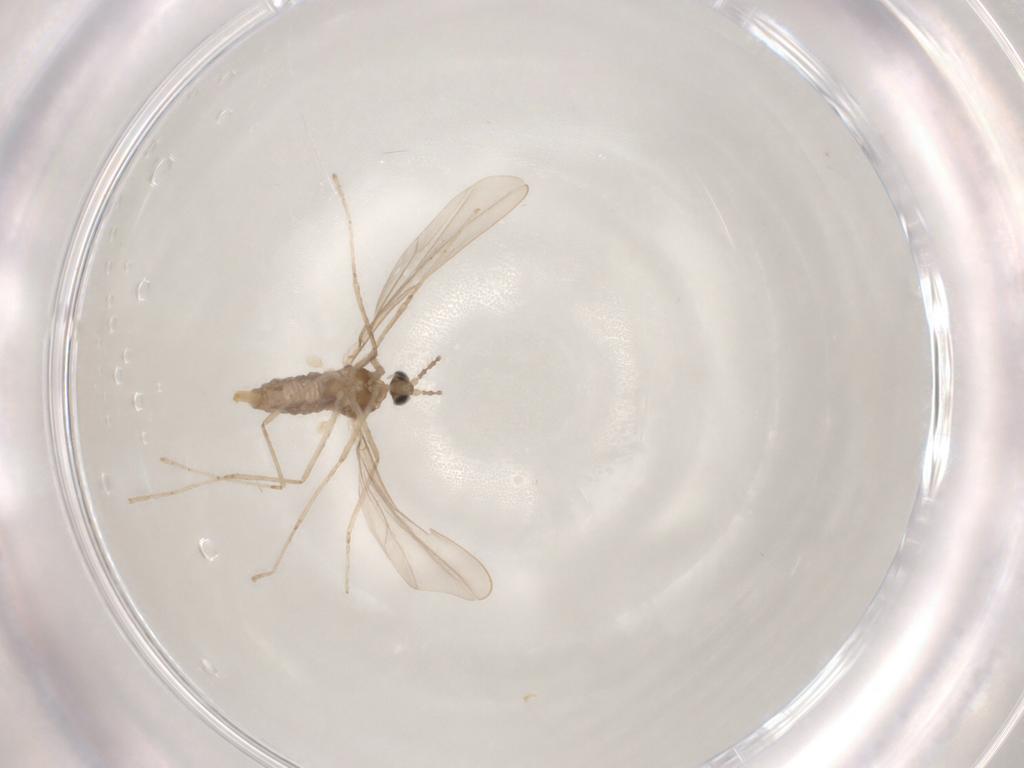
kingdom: Animalia
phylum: Arthropoda
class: Insecta
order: Diptera
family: Cecidomyiidae
